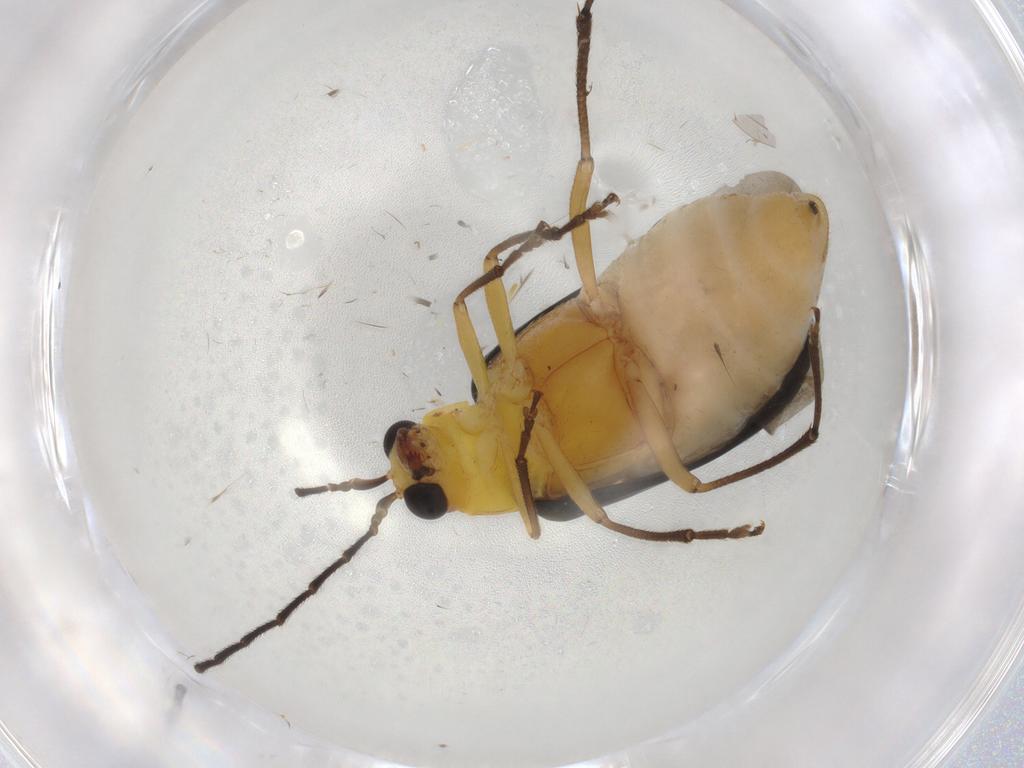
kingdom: Animalia
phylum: Arthropoda
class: Insecta
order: Coleoptera
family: Chrysomelidae
